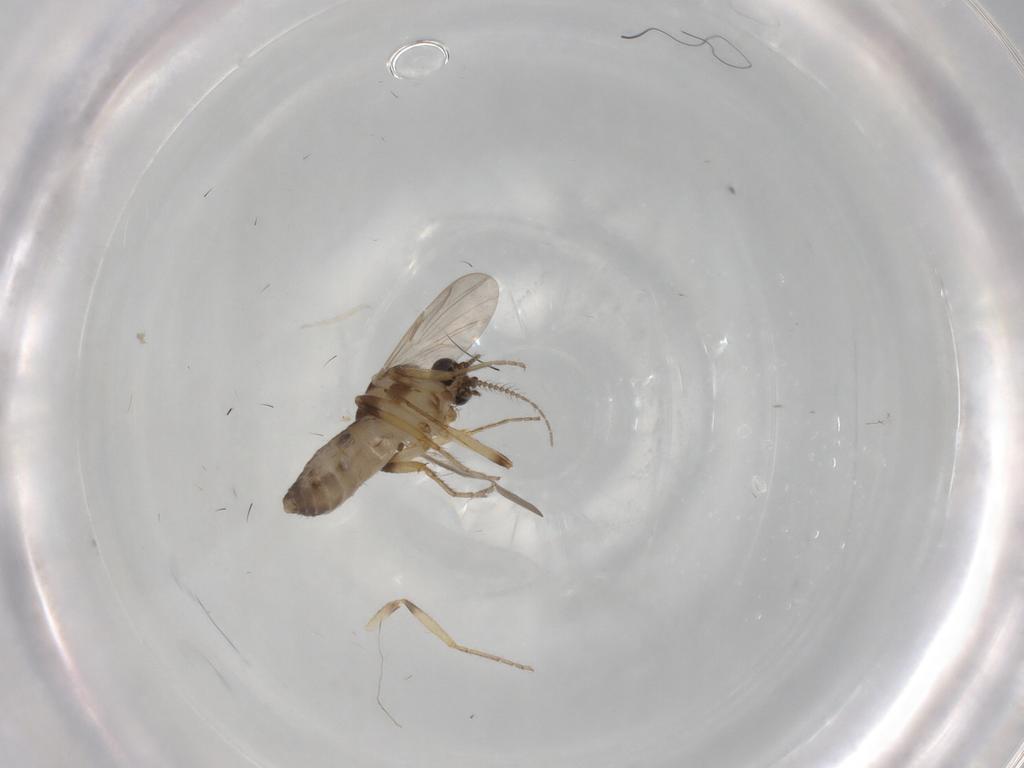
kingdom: Animalia
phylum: Arthropoda
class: Insecta
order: Diptera
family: Ceratopogonidae
